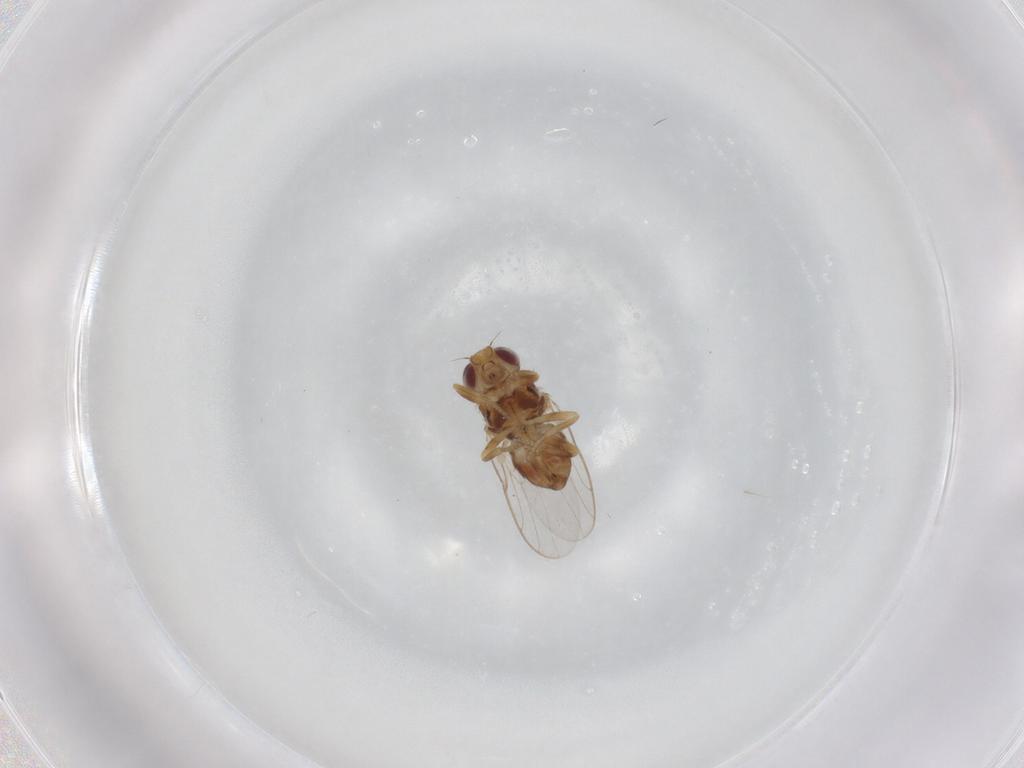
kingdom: Animalia
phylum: Arthropoda
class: Insecta
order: Diptera
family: Chloropidae
